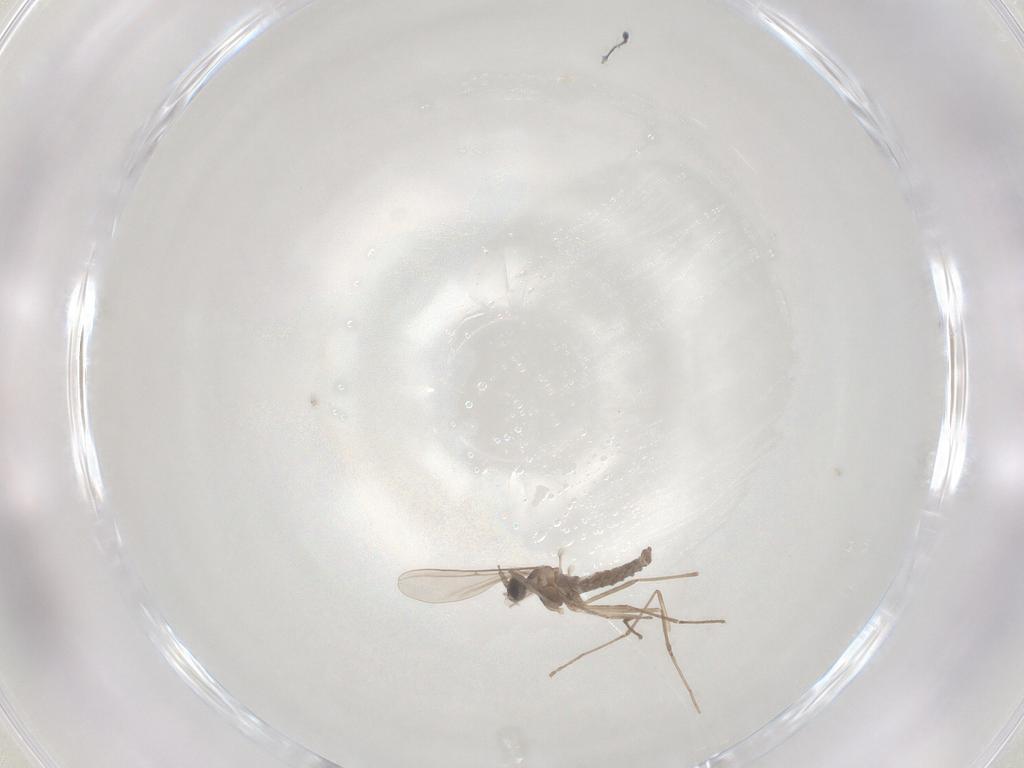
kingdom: Animalia
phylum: Arthropoda
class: Insecta
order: Diptera
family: Cecidomyiidae
